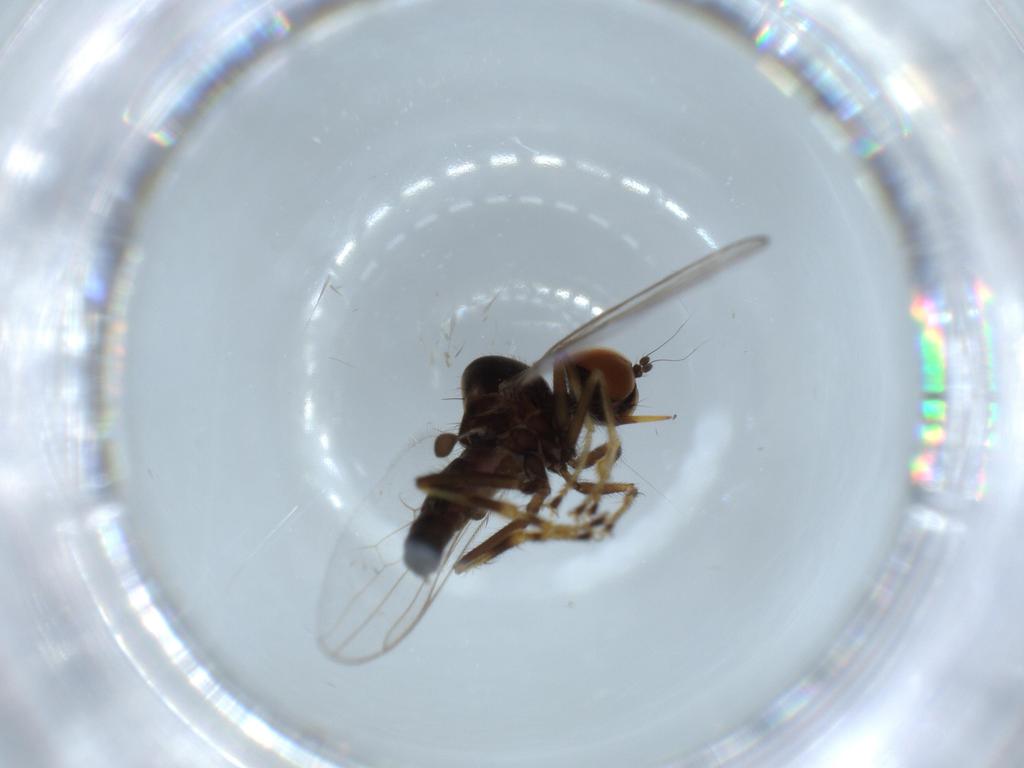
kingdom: Animalia
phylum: Arthropoda
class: Insecta
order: Diptera
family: Hybotidae
